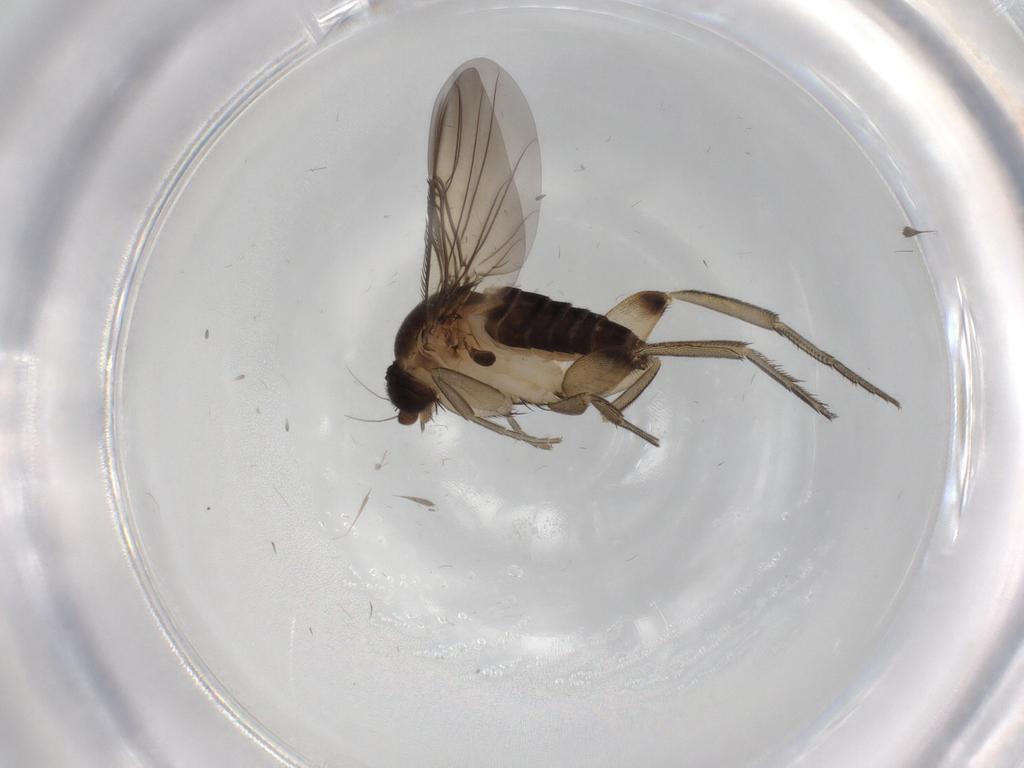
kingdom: Animalia
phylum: Arthropoda
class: Insecta
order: Diptera
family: Phoridae
